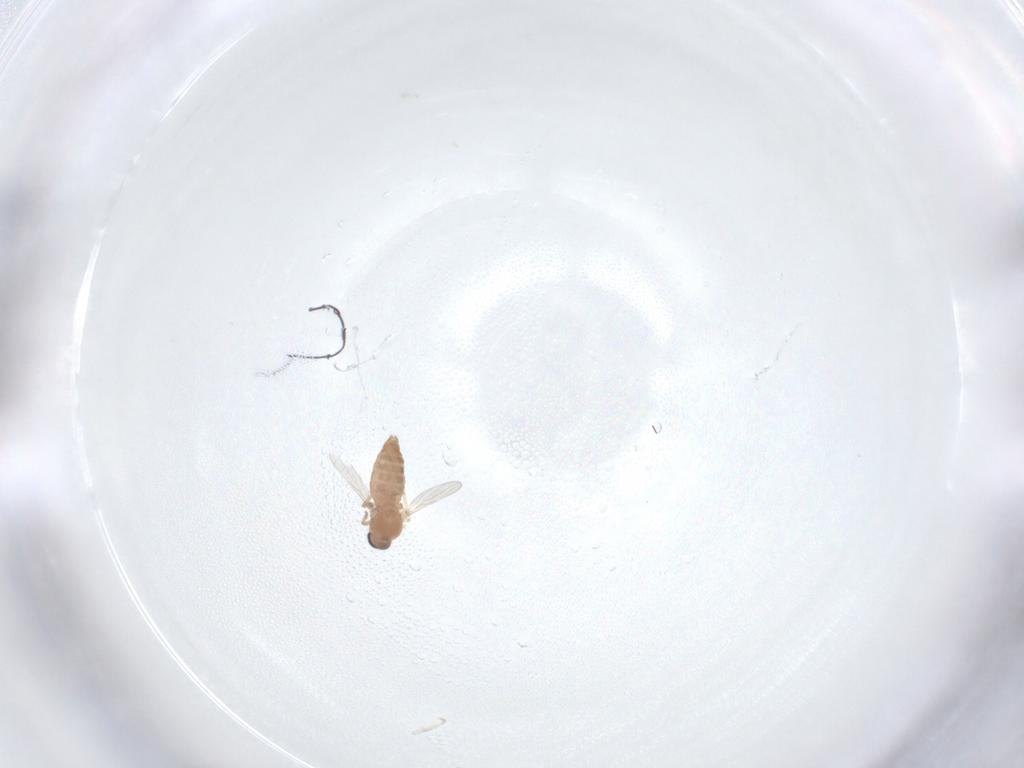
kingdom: Animalia
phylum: Arthropoda
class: Insecta
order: Diptera
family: Ceratopogonidae
